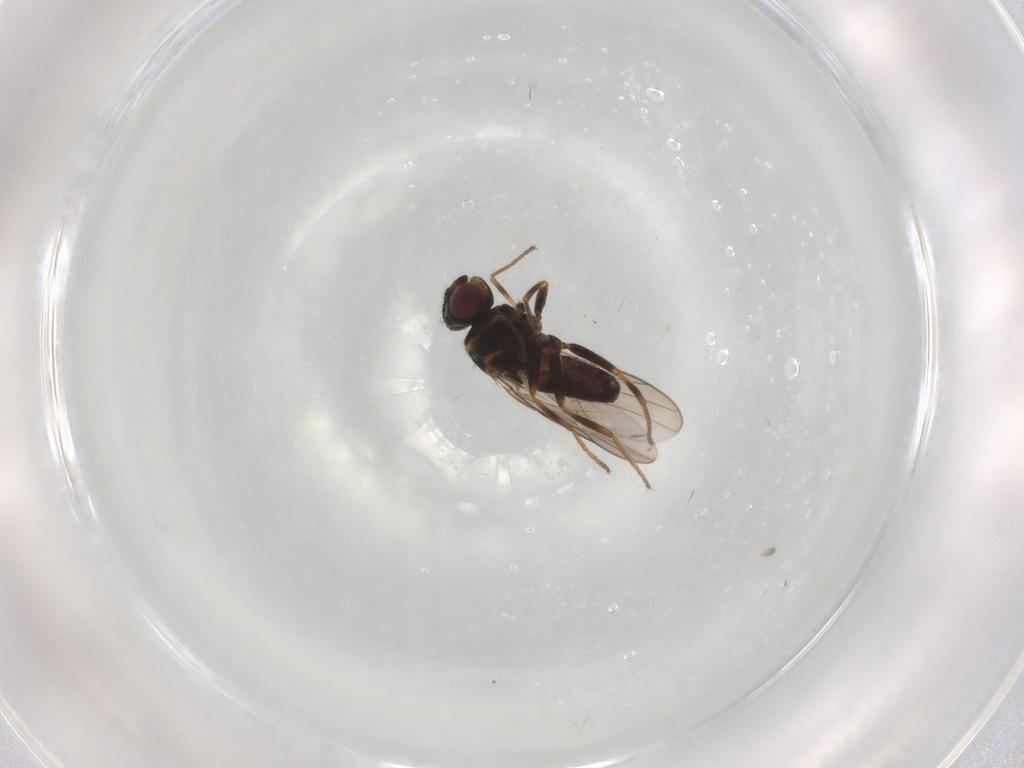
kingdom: Animalia
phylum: Arthropoda
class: Insecta
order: Diptera
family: Chloropidae
